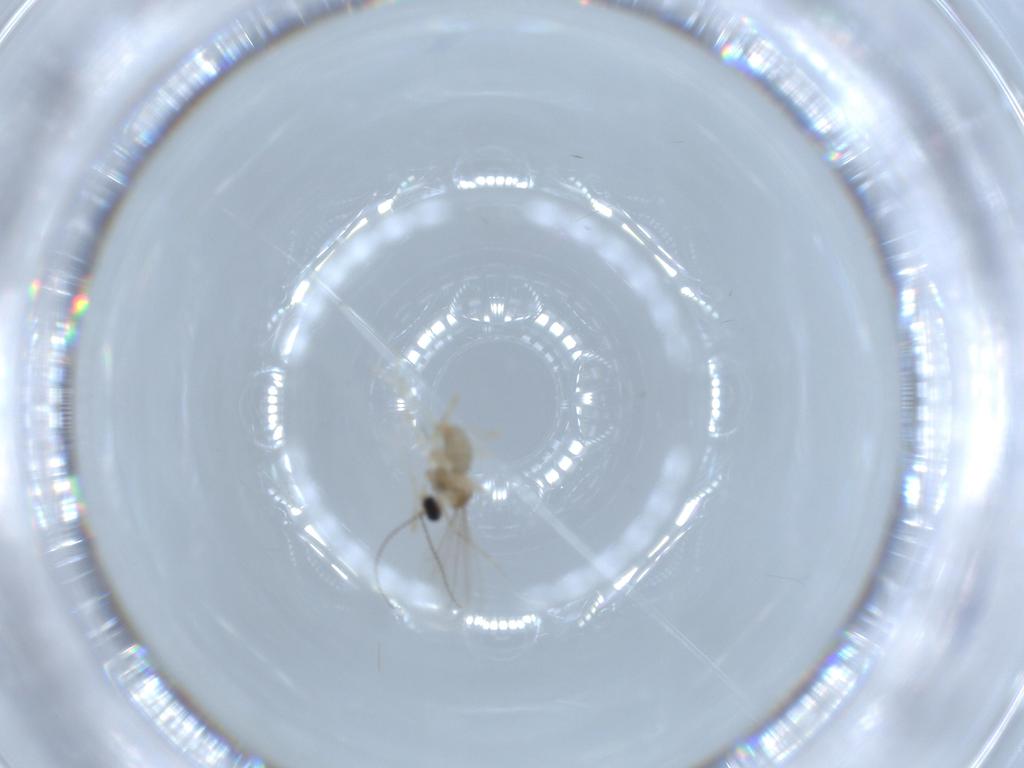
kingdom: Animalia
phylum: Arthropoda
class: Insecta
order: Diptera
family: Cecidomyiidae
